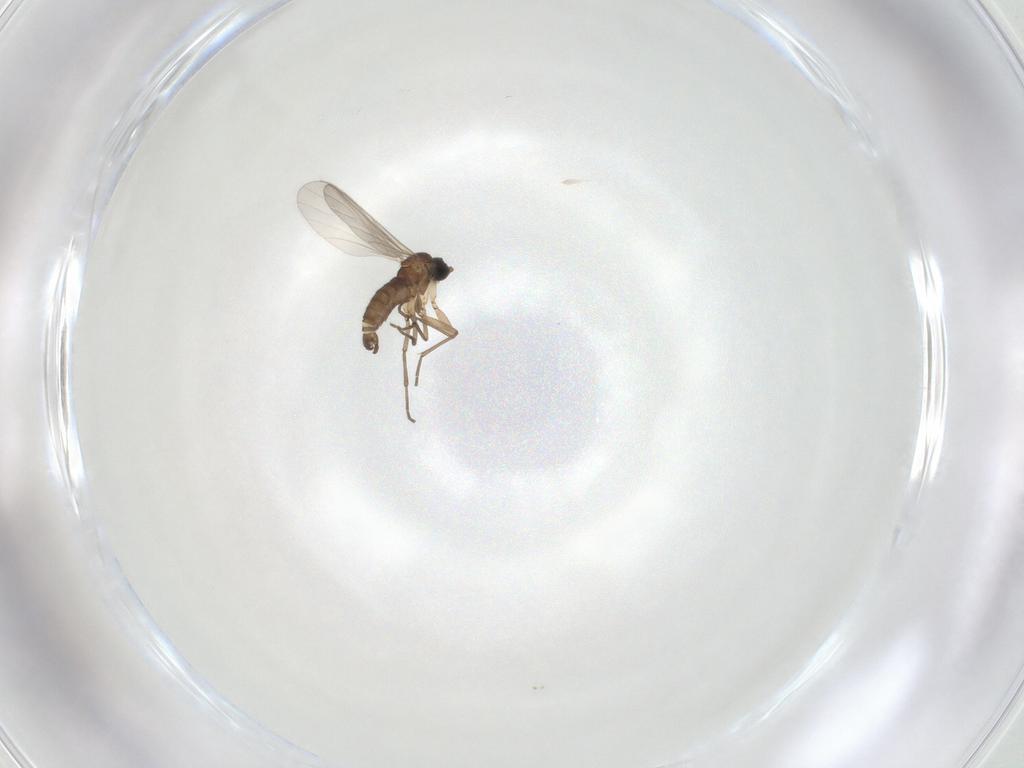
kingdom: Animalia
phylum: Arthropoda
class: Insecta
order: Diptera
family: Sciaridae
